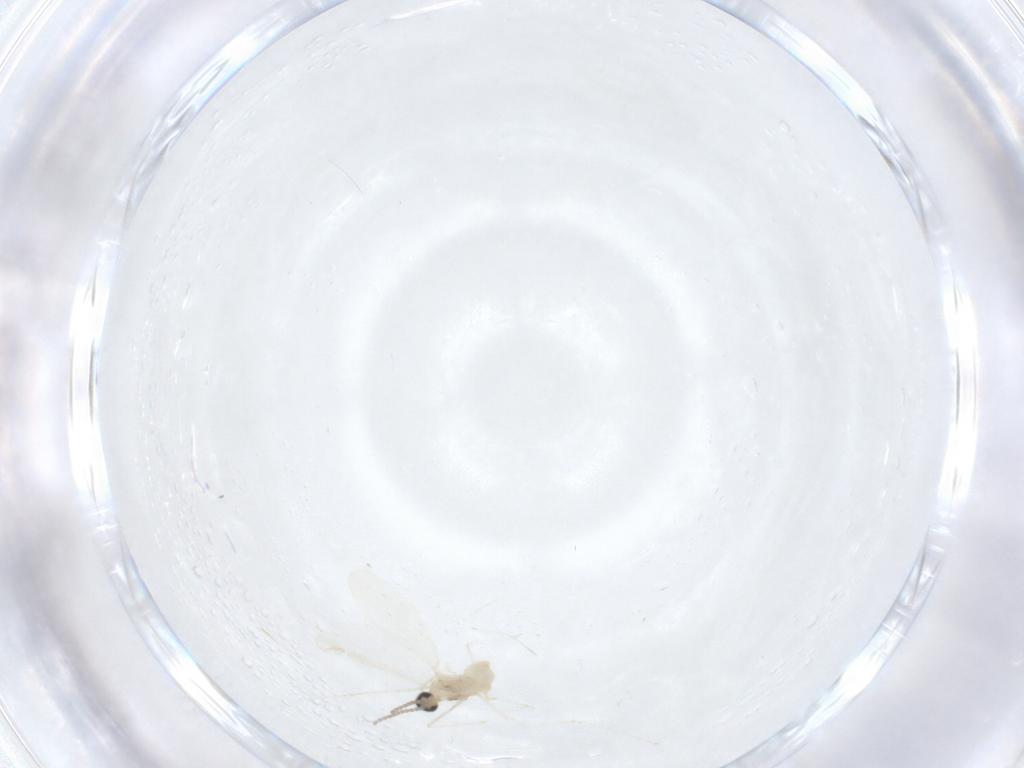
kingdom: Animalia
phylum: Arthropoda
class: Insecta
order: Diptera
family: Cecidomyiidae
